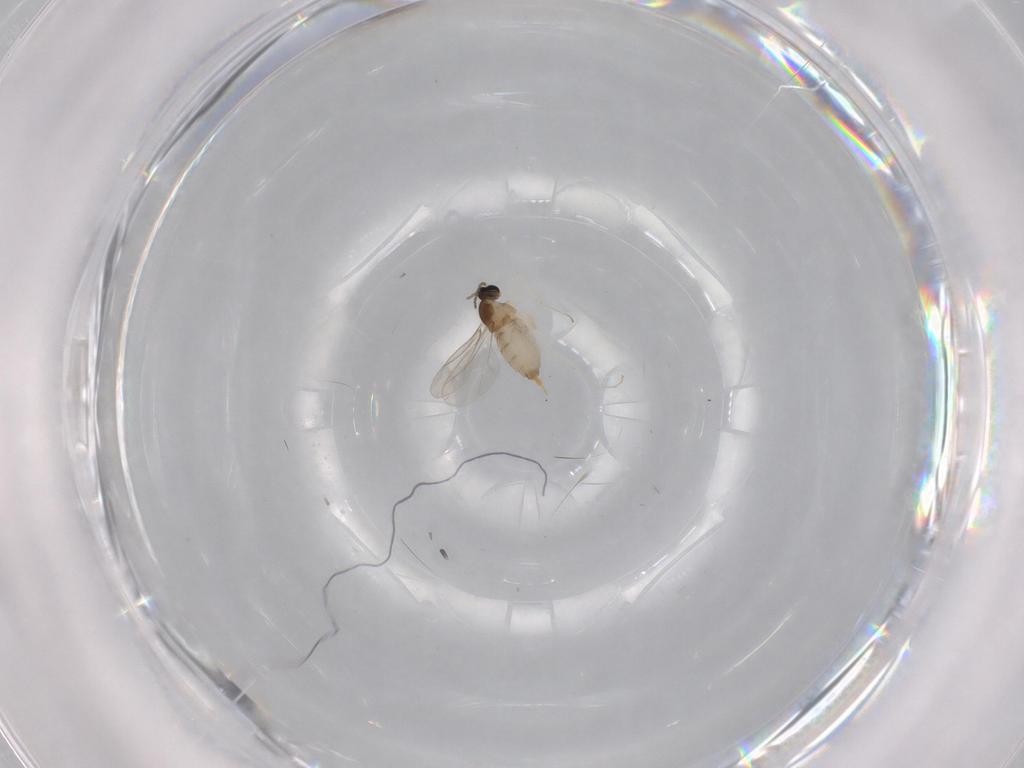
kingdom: Animalia
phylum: Arthropoda
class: Insecta
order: Diptera
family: Cecidomyiidae
